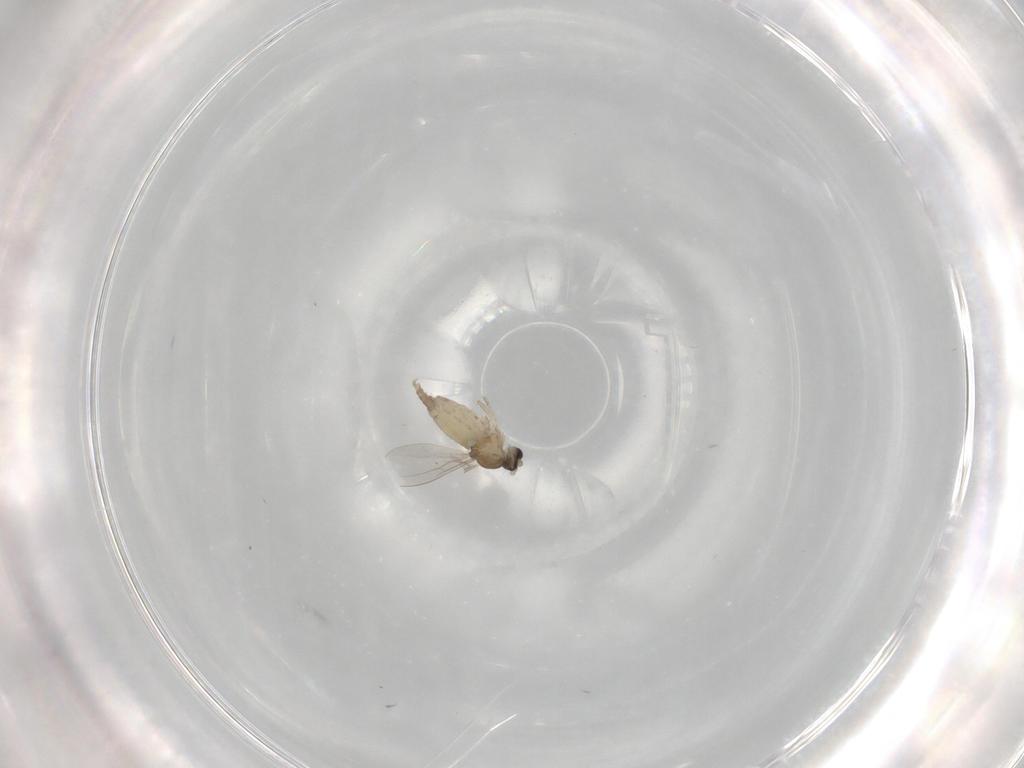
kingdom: Animalia
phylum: Arthropoda
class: Insecta
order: Diptera
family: Cecidomyiidae
